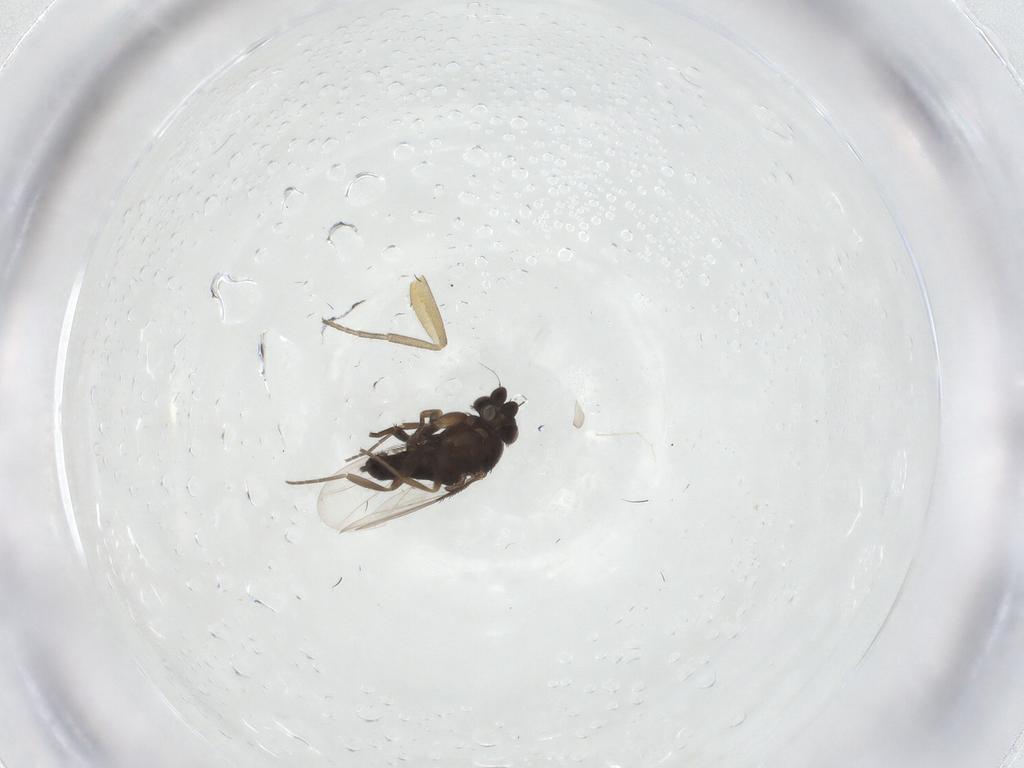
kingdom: Animalia
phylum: Arthropoda
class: Insecta
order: Diptera
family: Phoridae
